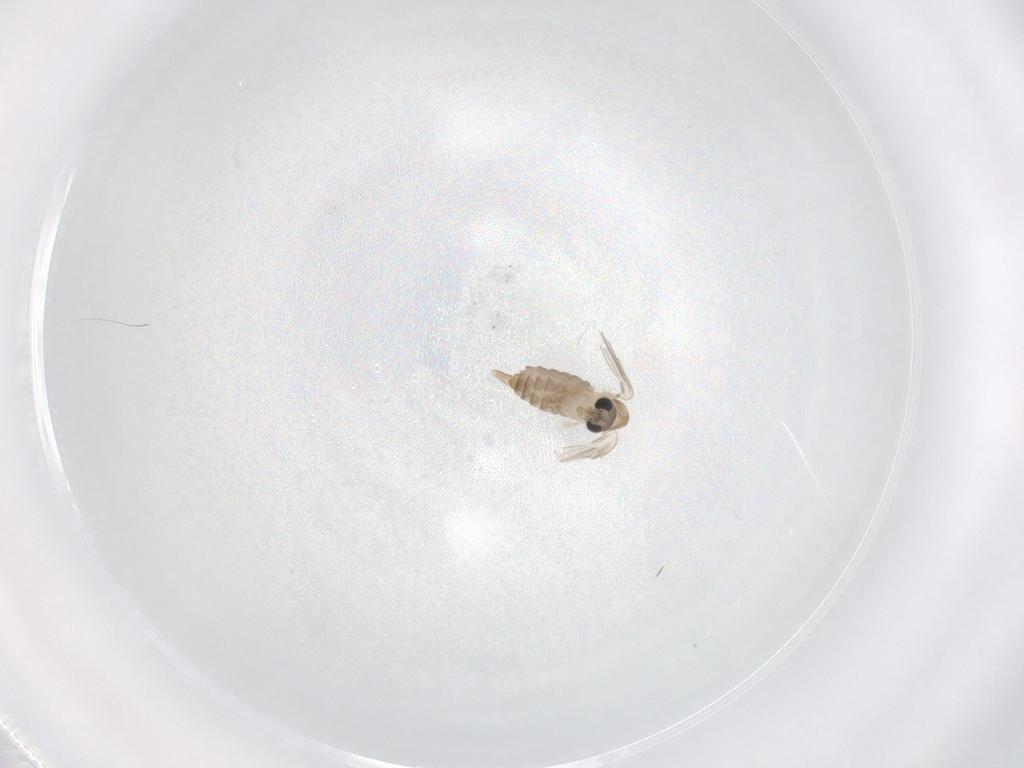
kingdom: Animalia
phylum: Arthropoda
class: Insecta
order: Diptera
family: Psychodidae
